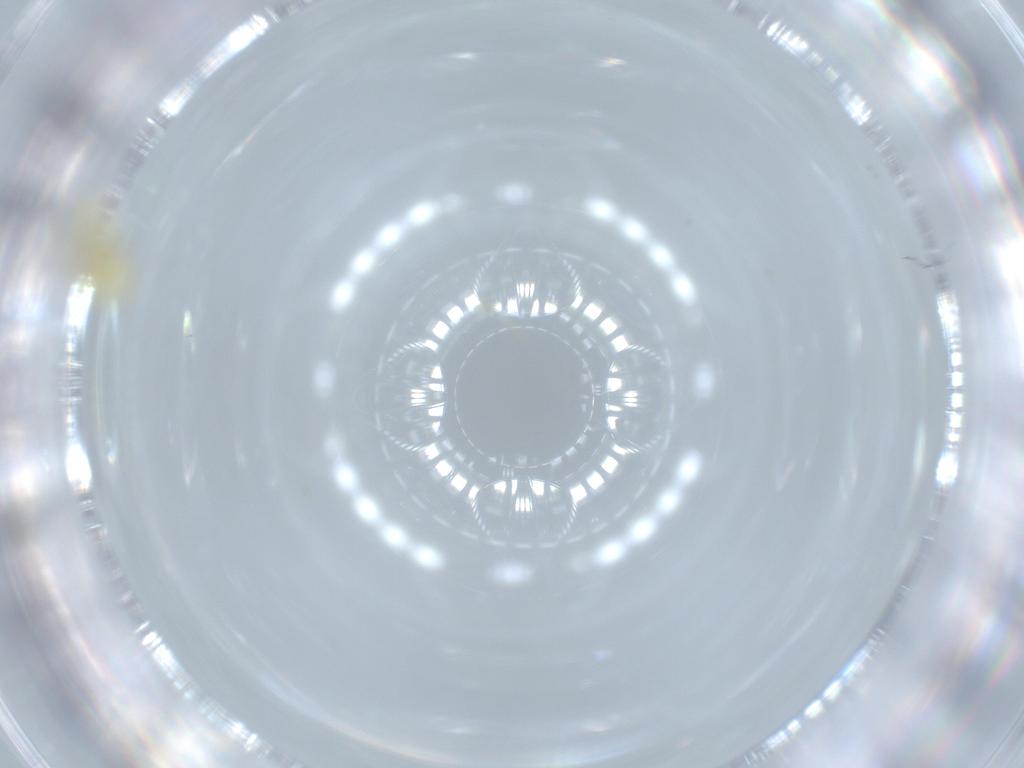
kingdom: Animalia
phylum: Arthropoda
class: Insecta
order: Hemiptera
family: Aleyrodidae
